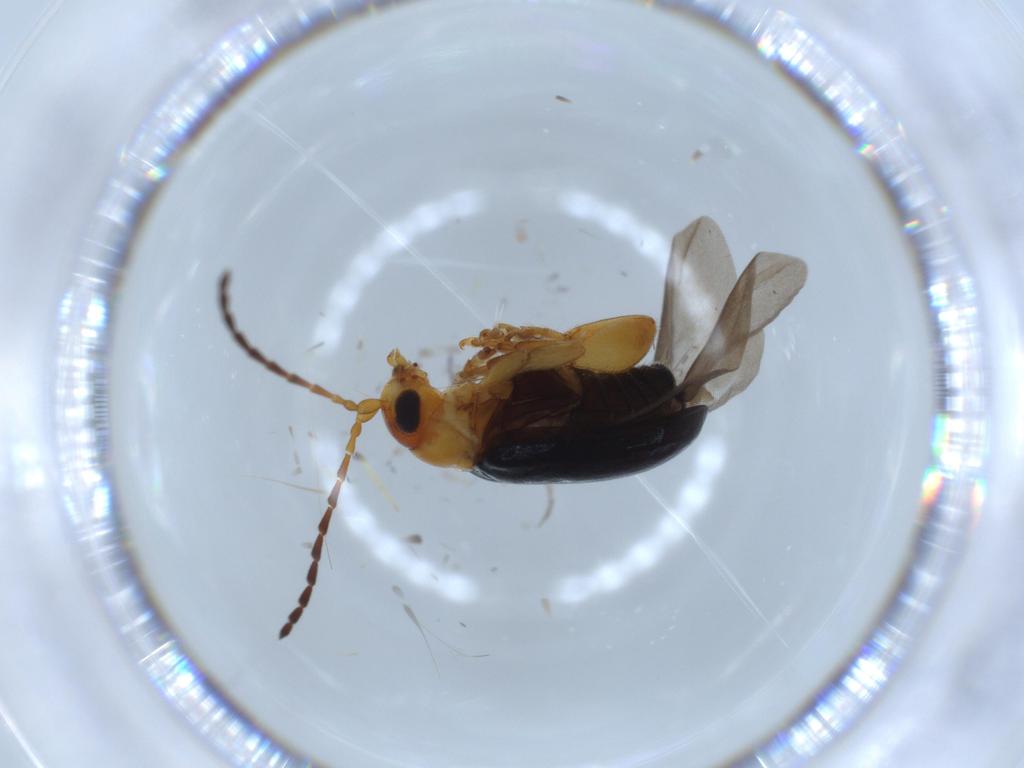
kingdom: Animalia
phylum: Arthropoda
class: Insecta
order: Coleoptera
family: Chrysomelidae
